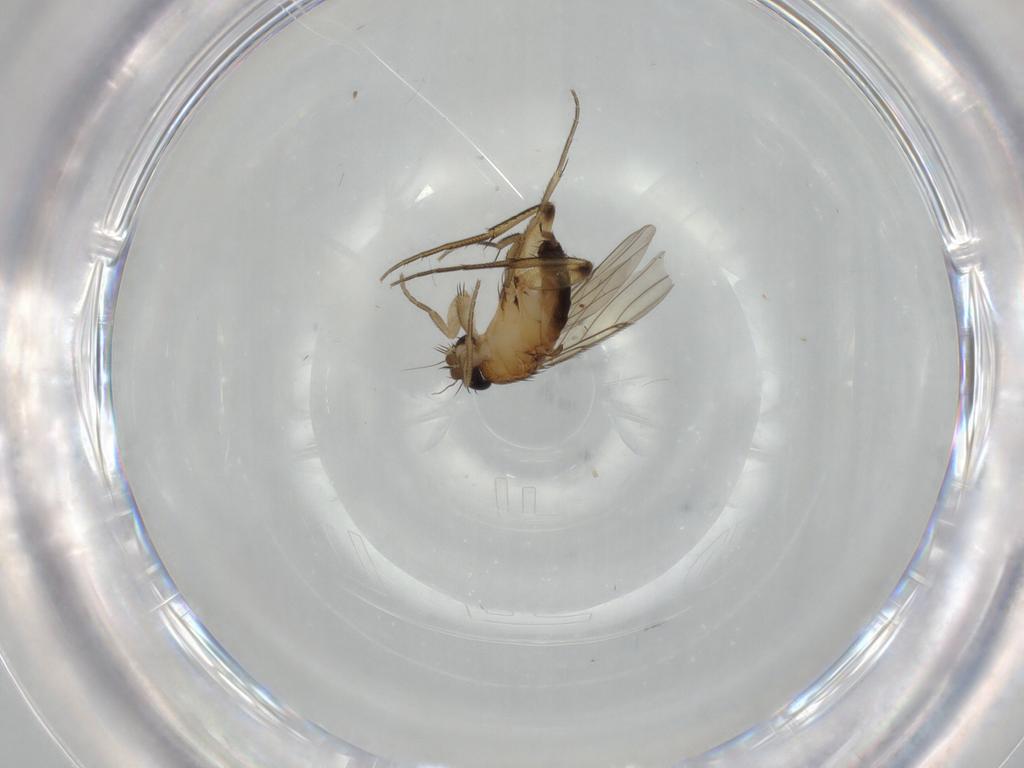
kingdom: Animalia
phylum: Arthropoda
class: Insecta
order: Diptera
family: Phoridae
